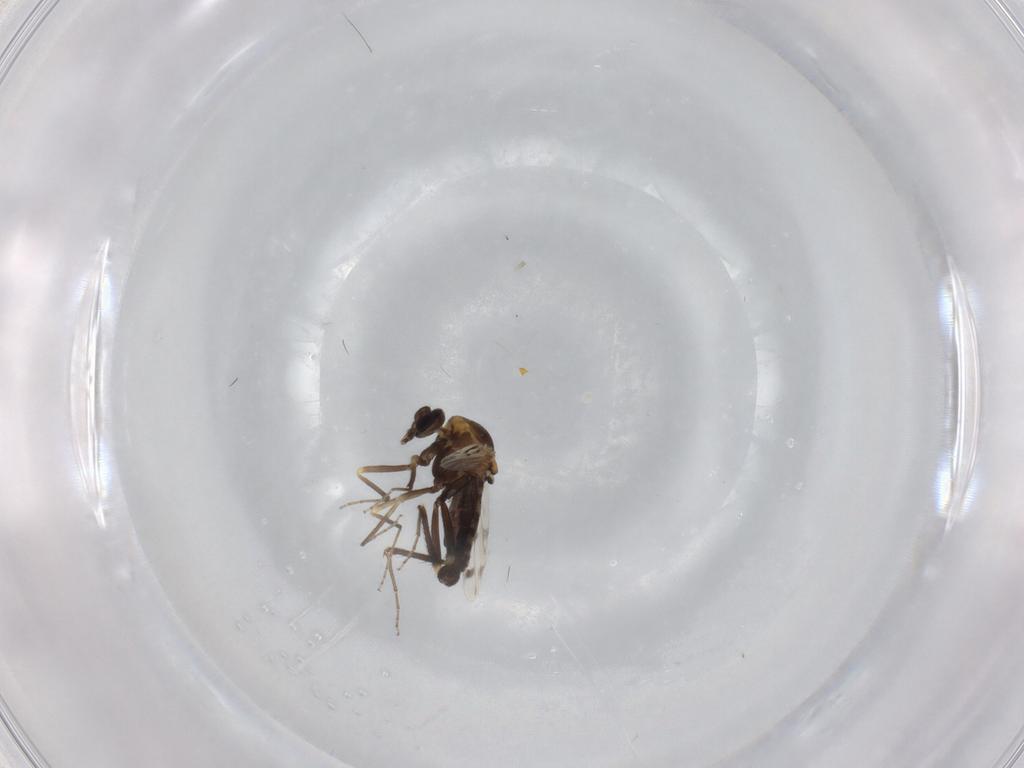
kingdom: Animalia
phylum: Arthropoda
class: Insecta
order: Diptera
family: Ceratopogonidae
